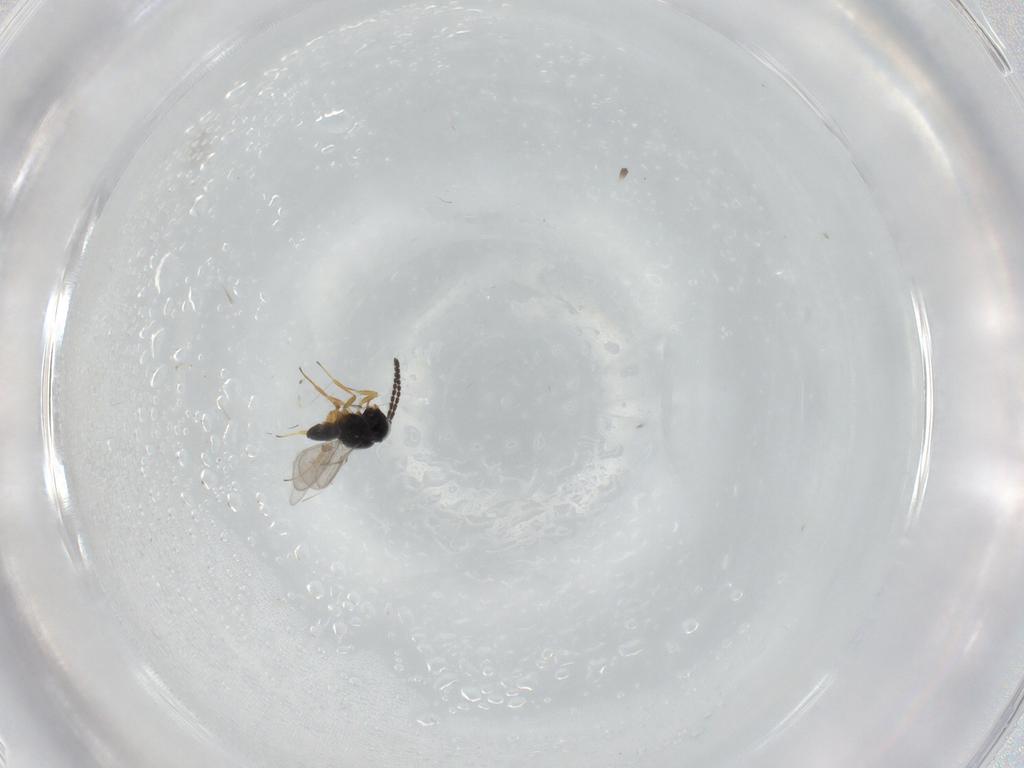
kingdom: Animalia
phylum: Arthropoda
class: Insecta
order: Hymenoptera
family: Scelionidae
